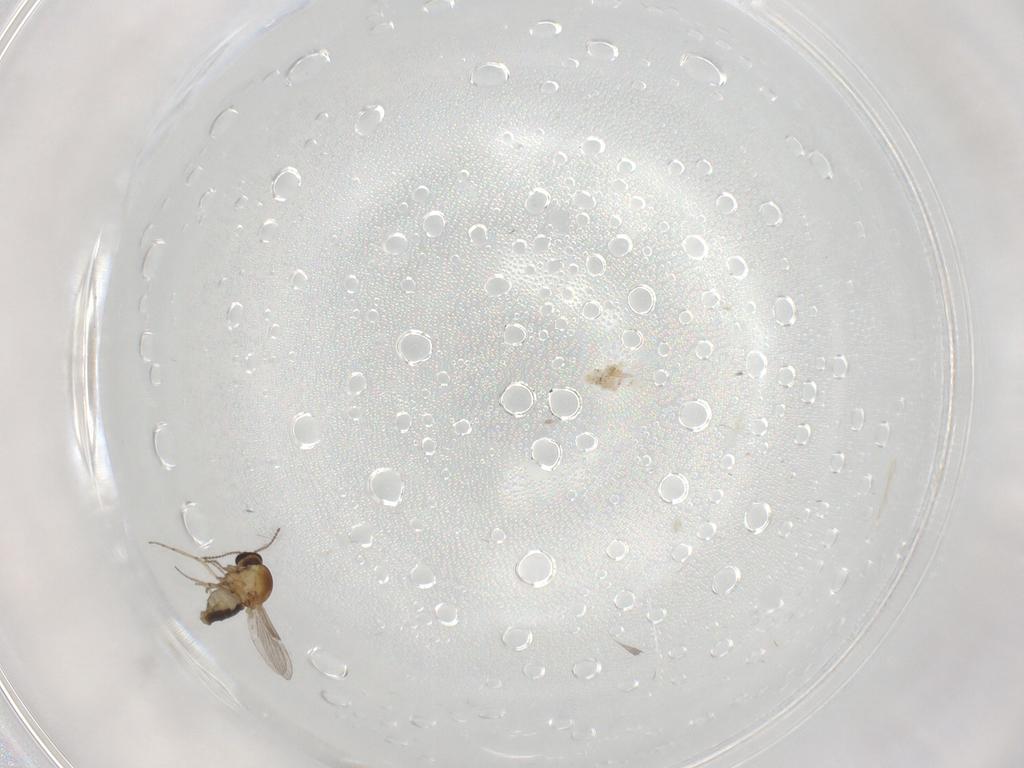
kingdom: Animalia
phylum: Arthropoda
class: Insecta
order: Diptera
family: Ceratopogonidae
